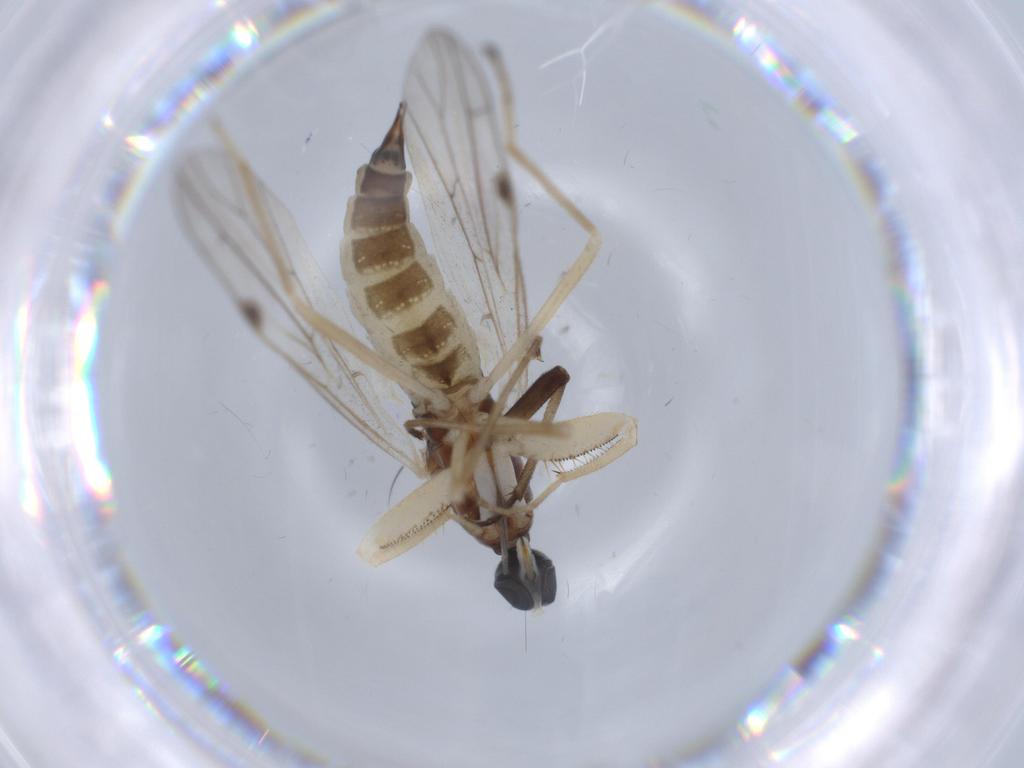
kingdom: Animalia
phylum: Arthropoda
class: Insecta
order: Diptera
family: Empididae
